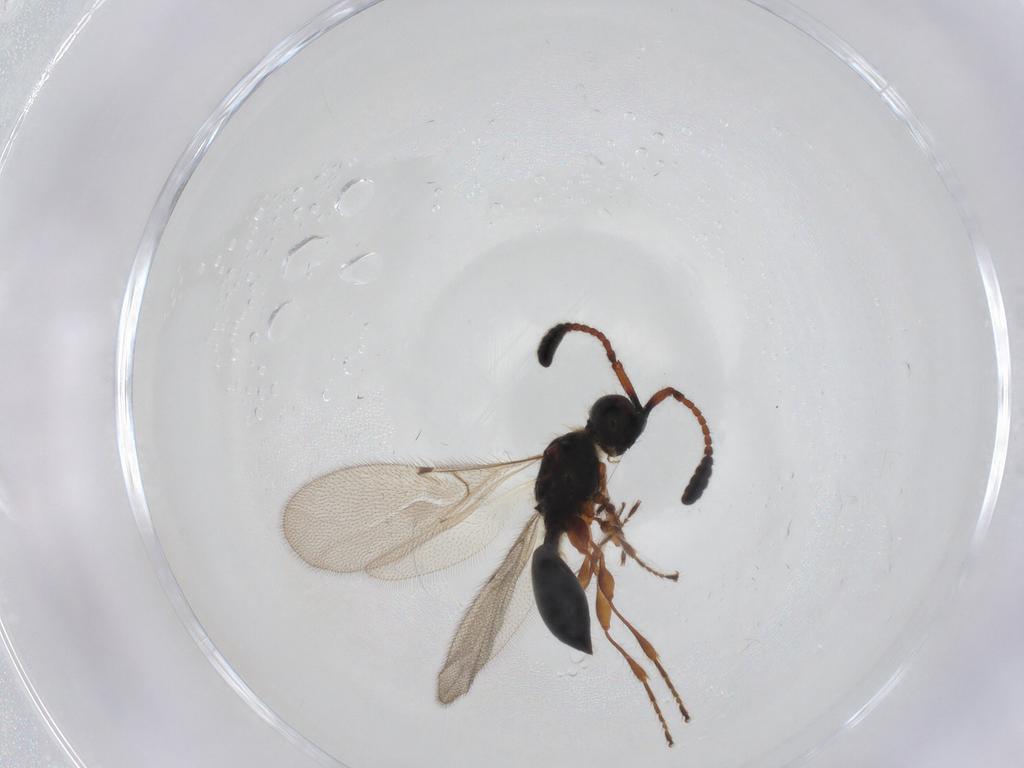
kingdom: Animalia
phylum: Arthropoda
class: Insecta
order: Hymenoptera
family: Diapriidae
